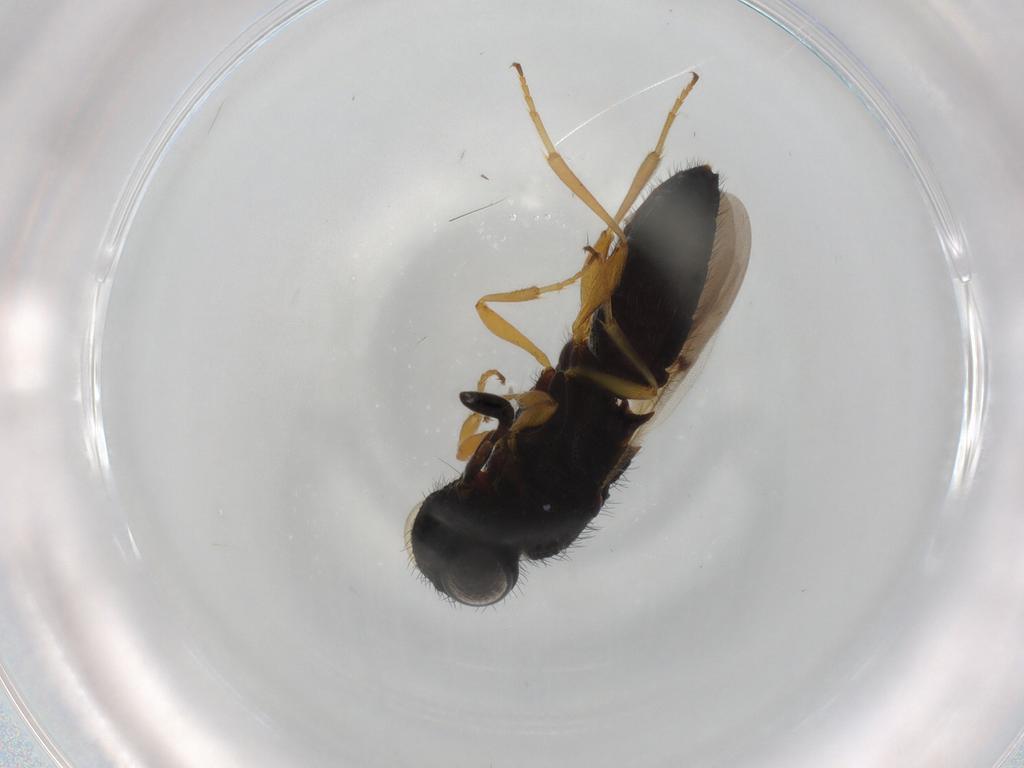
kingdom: Animalia
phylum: Arthropoda
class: Insecta
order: Hymenoptera
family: Scelionidae
